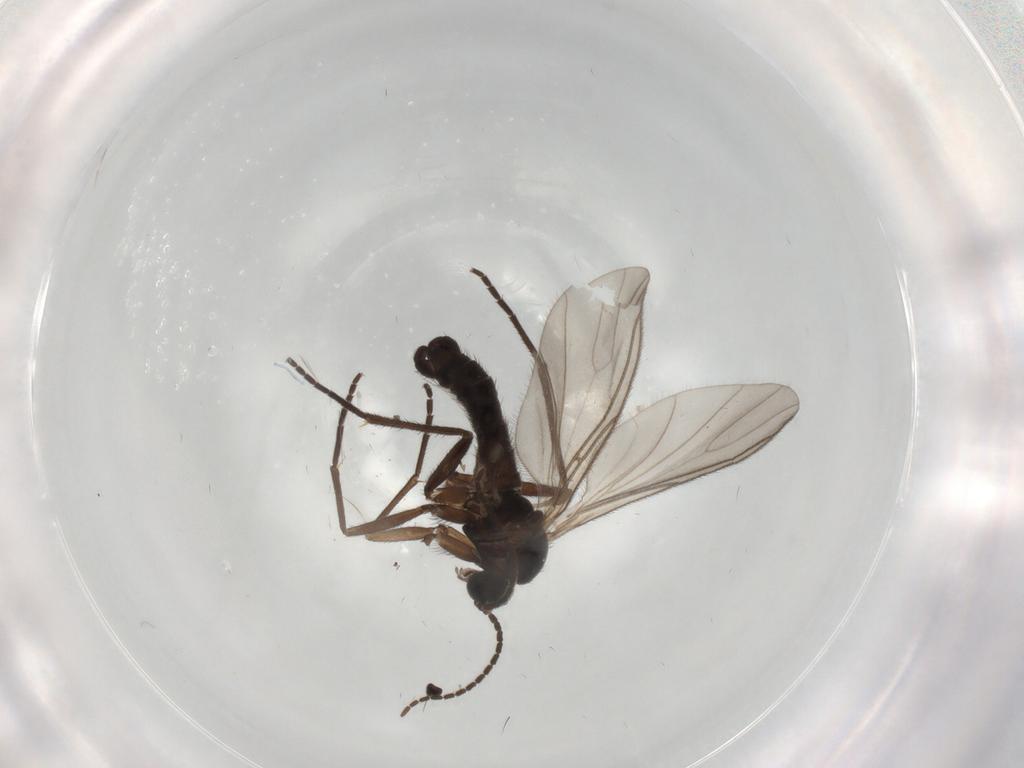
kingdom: Animalia
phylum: Arthropoda
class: Insecta
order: Diptera
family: Sciaridae
